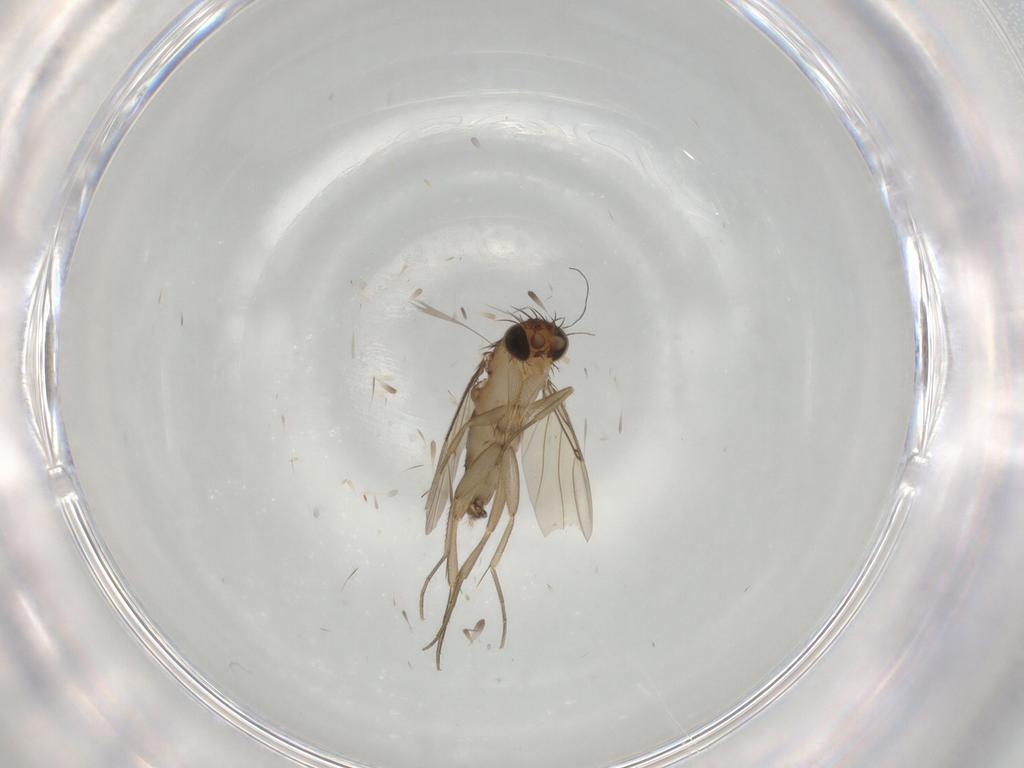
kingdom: Animalia
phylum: Arthropoda
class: Insecta
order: Diptera
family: Phoridae
